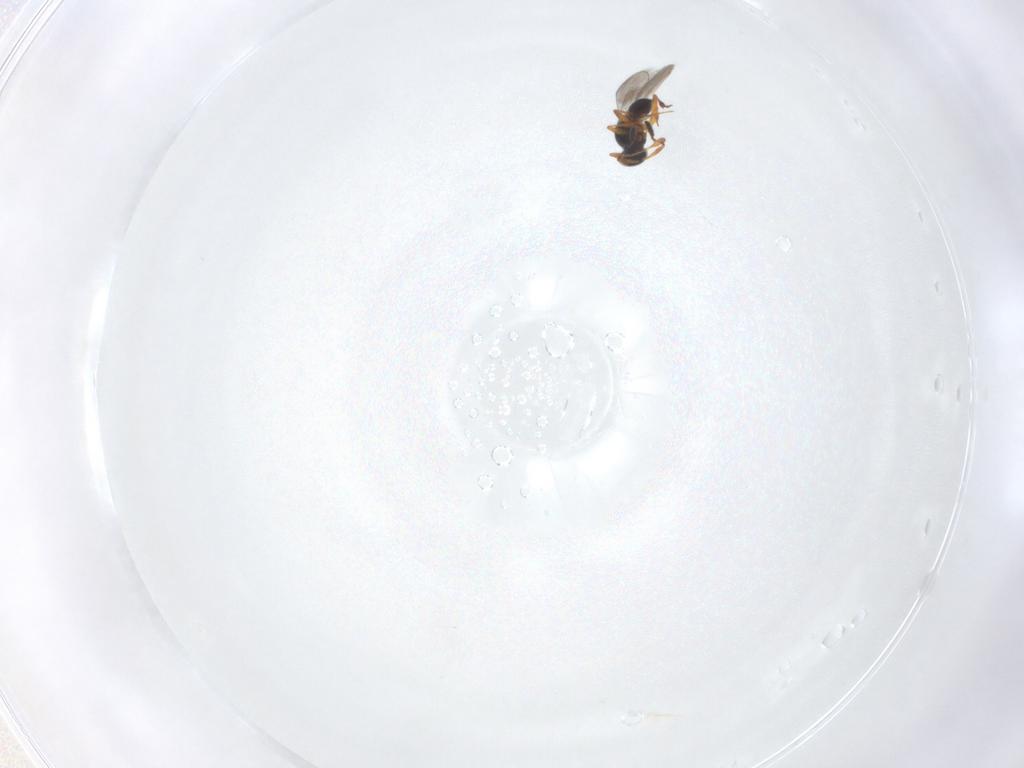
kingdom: Animalia
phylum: Arthropoda
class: Insecta
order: Hymenoptera
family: Platygastridae
